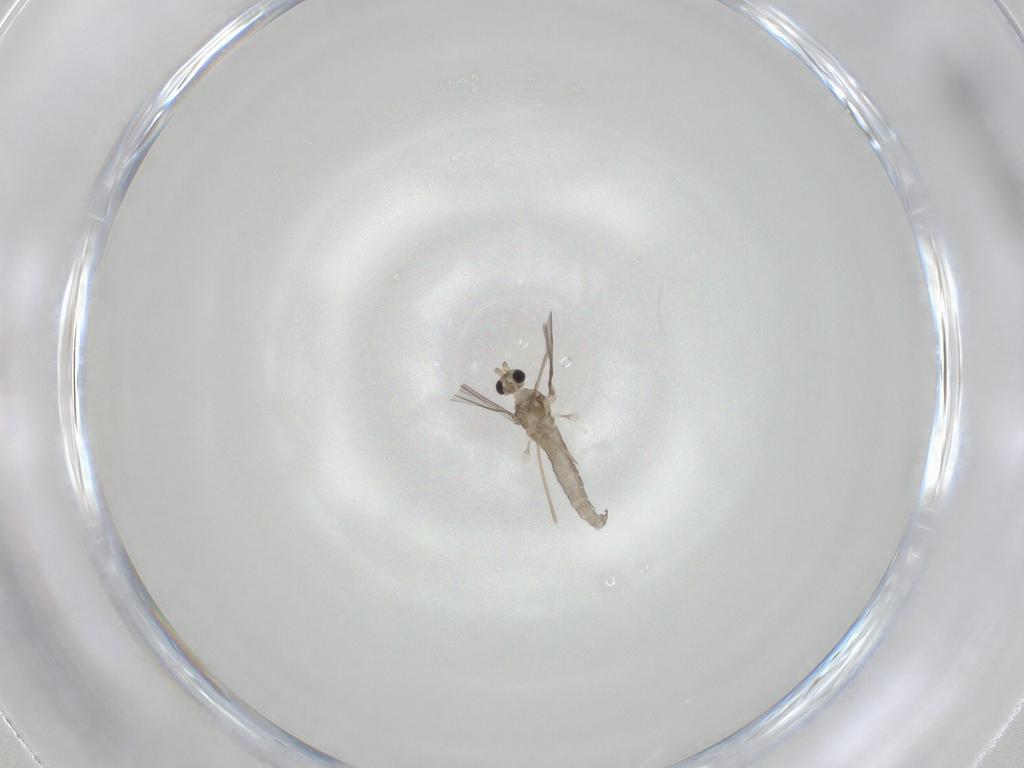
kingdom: Animalia
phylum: Arthropoda
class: Insecta
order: Diptera
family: Cecidomyiidae
